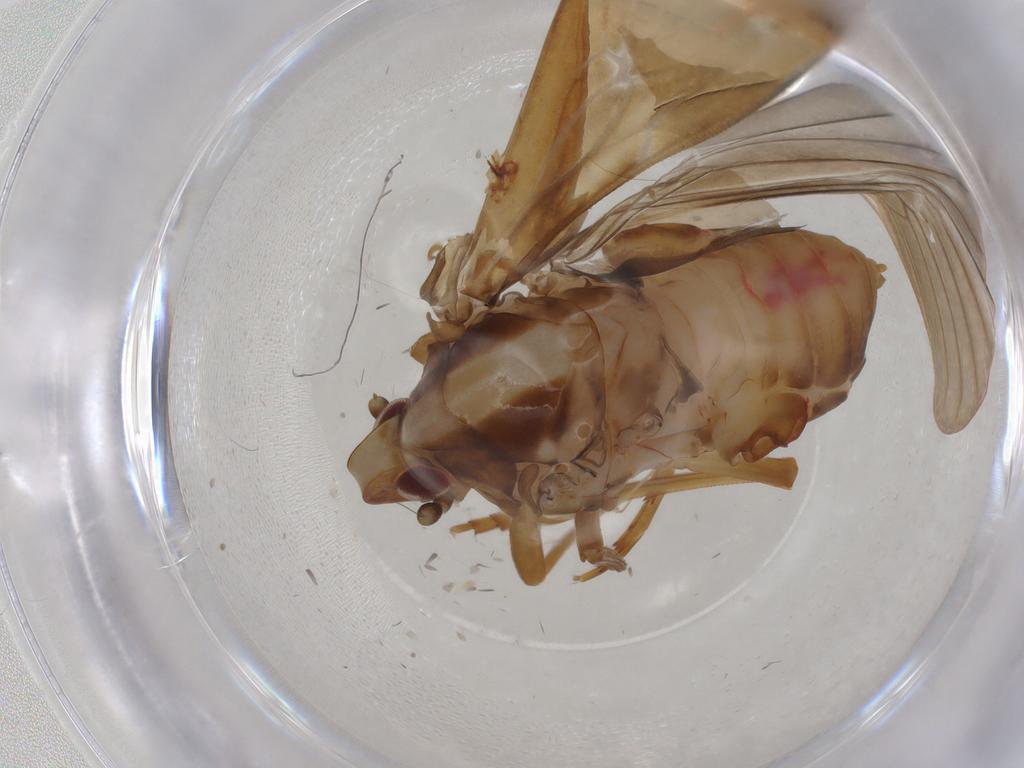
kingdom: Animalia
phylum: Arthropoda
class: Insecta
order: Hemiptera
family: Achilixiidae
